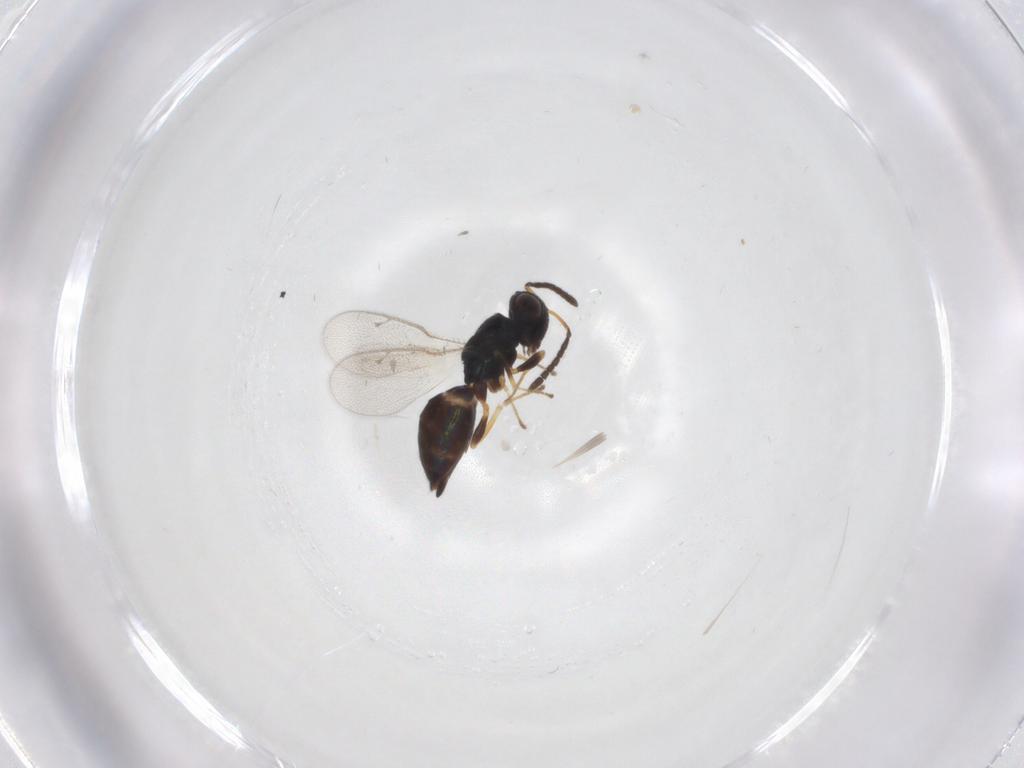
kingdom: Animalia
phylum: Arthropoda
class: Insecta
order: Hymenoptera
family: Pteromalidae
